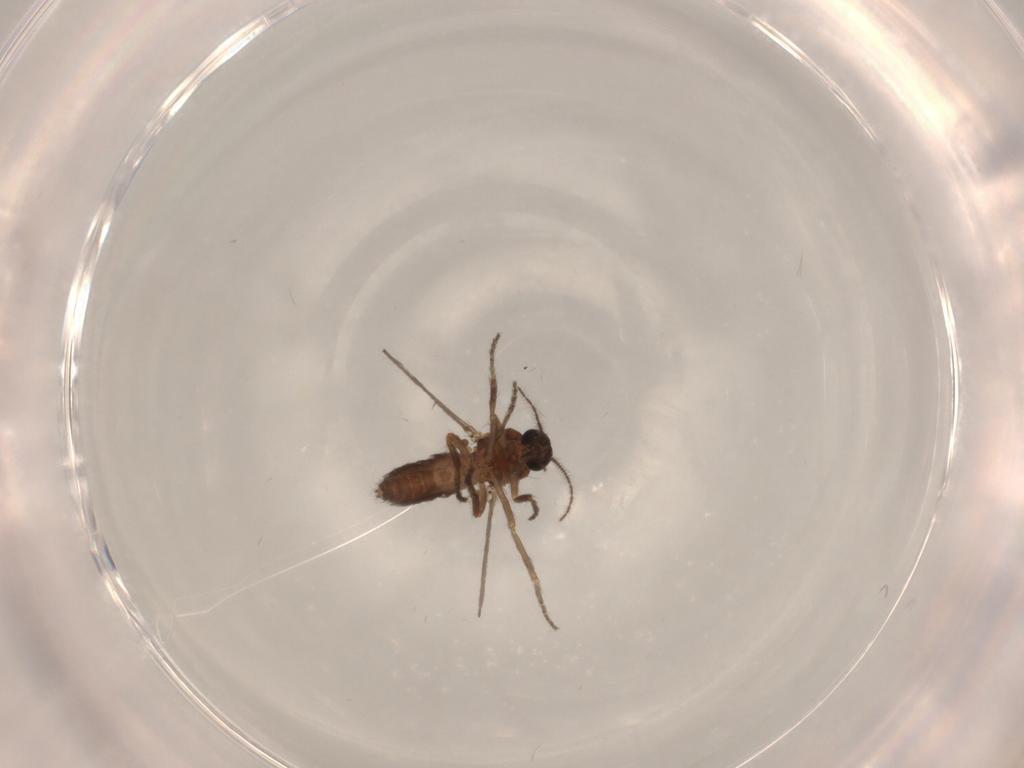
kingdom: Animalia
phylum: Arthropoda
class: Insecta
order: Diptera
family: Ceratopogonidae
